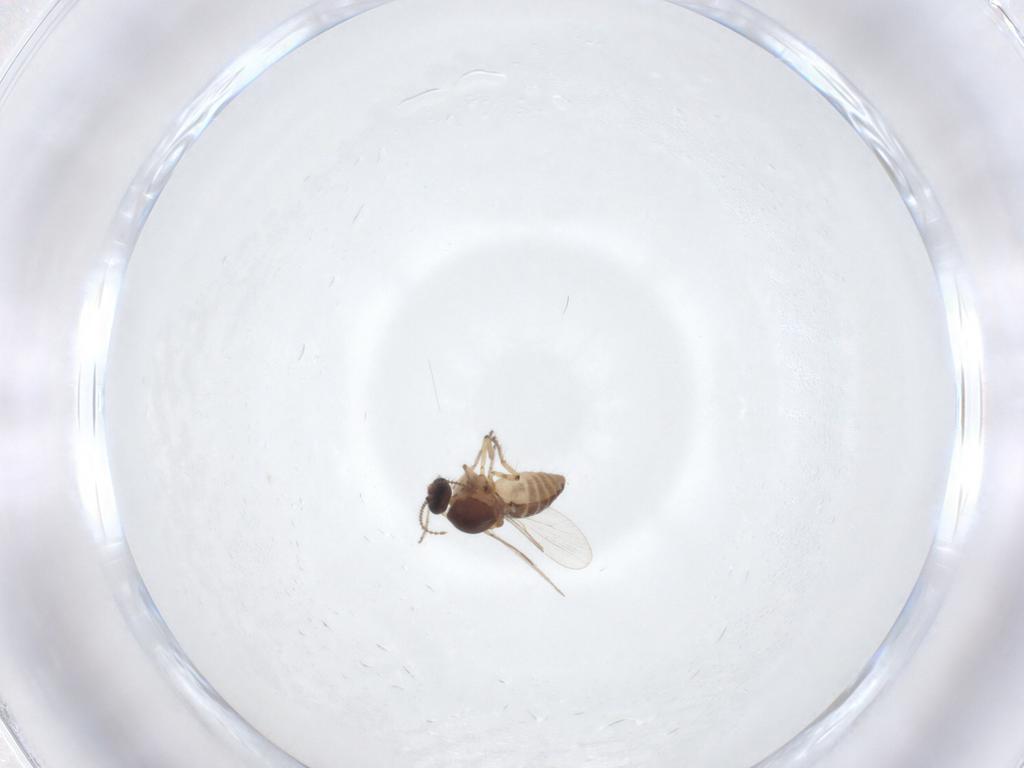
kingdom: Animalia
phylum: Arthropoda
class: Insecta
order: Diptera
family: Ceratopogonidae
